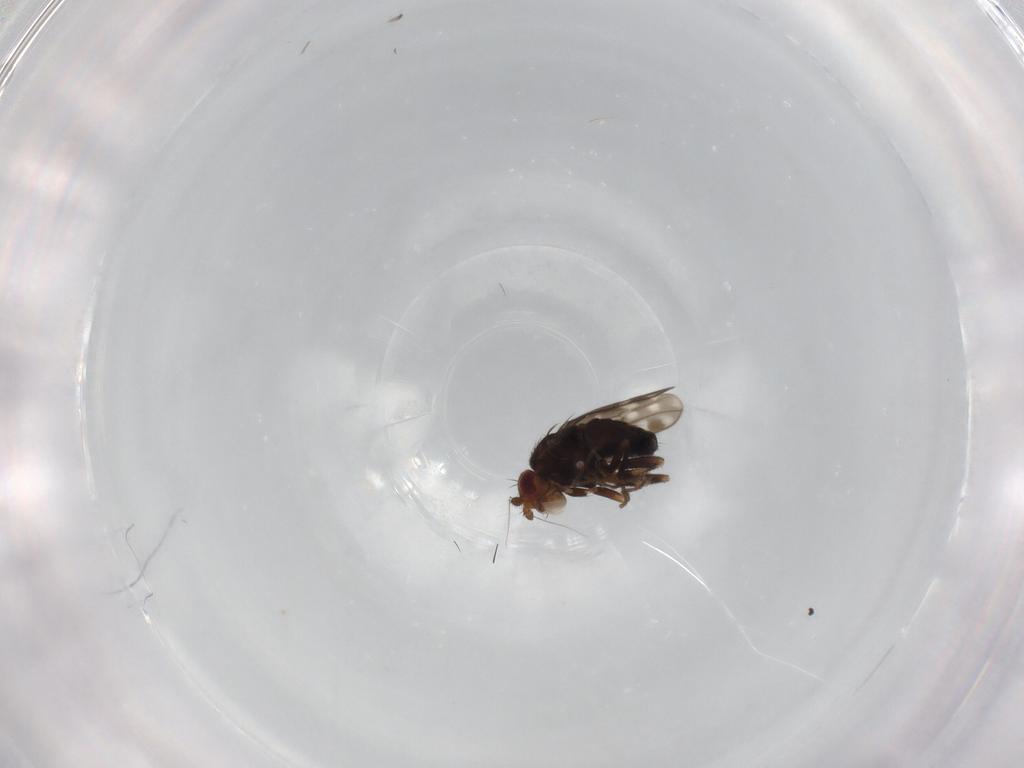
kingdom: Animalia
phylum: Arthropoda
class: Insecta
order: Diptera
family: Sphaeroceridae
